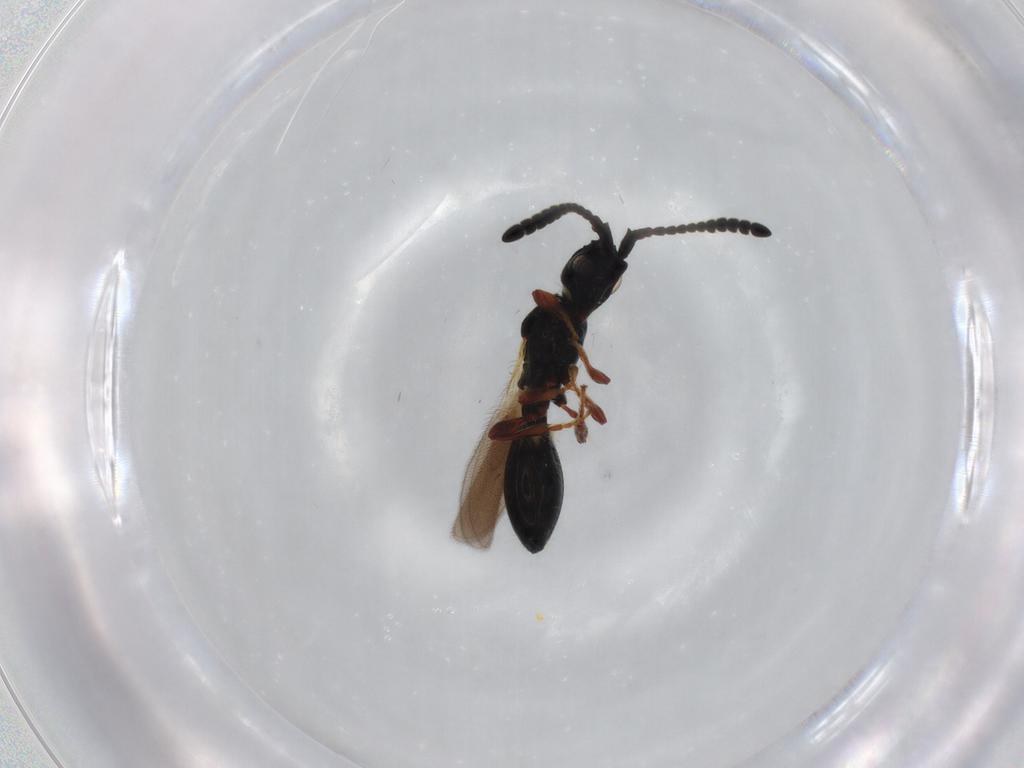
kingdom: Animalia
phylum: Arthropoda
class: Insecta
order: Hymenoptera
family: Diapriidae
